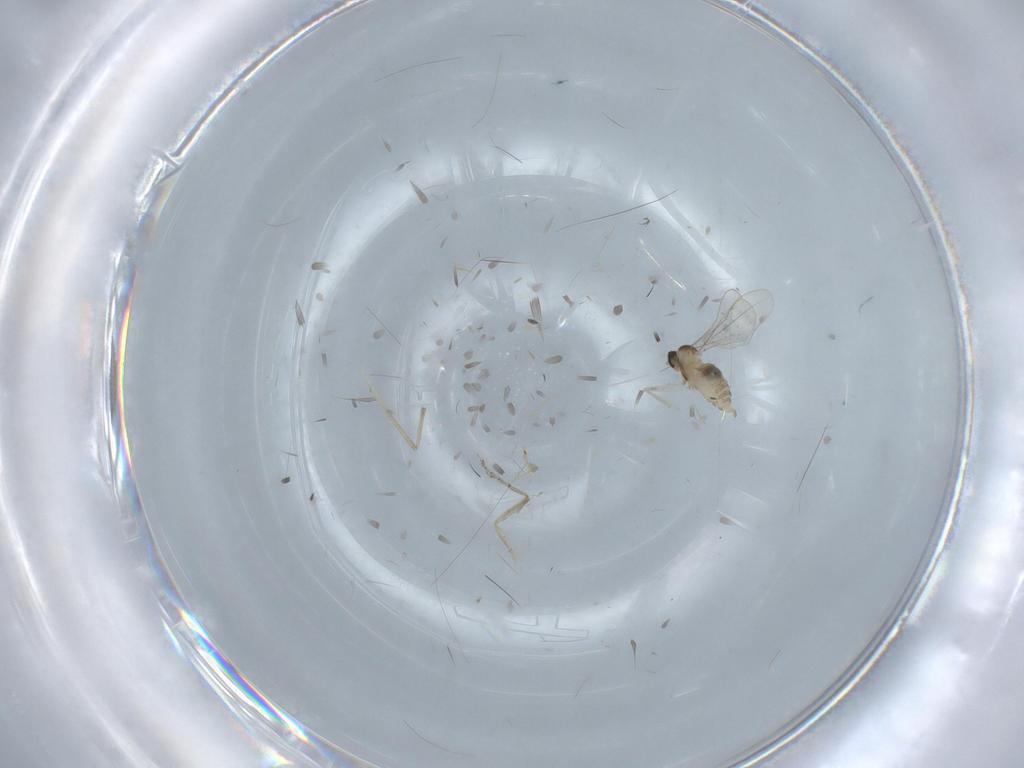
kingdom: Animalia
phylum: Arthropoda
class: Insecta
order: Diptera
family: Cecidomyiidae
